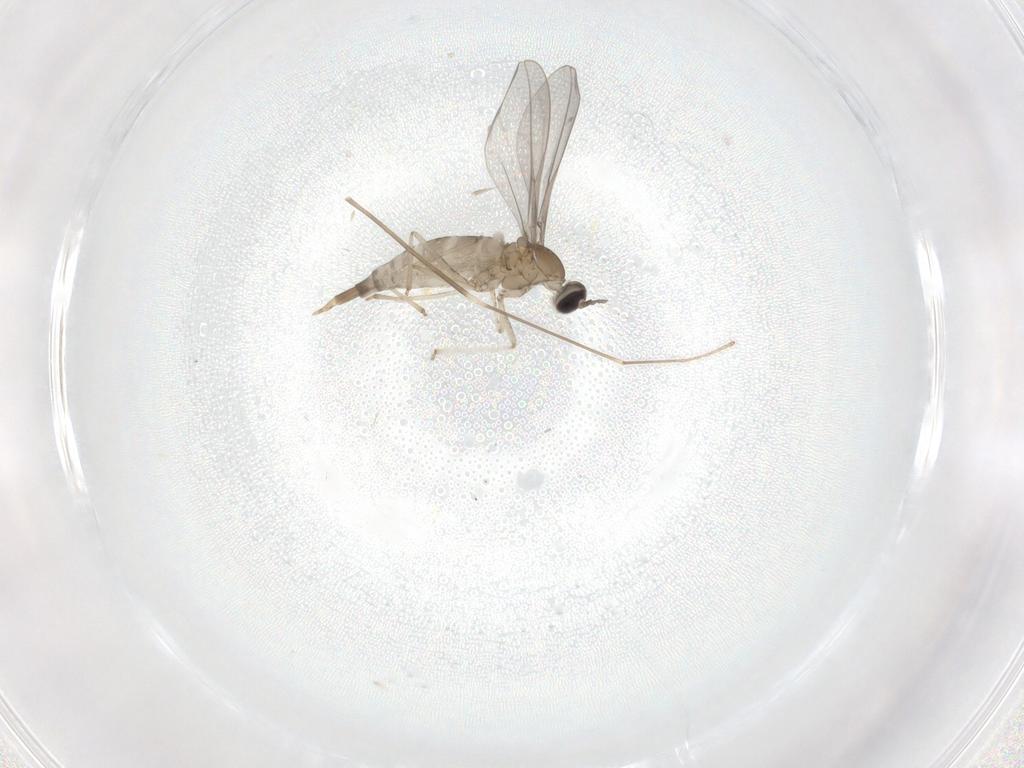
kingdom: Animalia
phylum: Arthropoda
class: Insecta
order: Diptera
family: Cecidomyiidae
